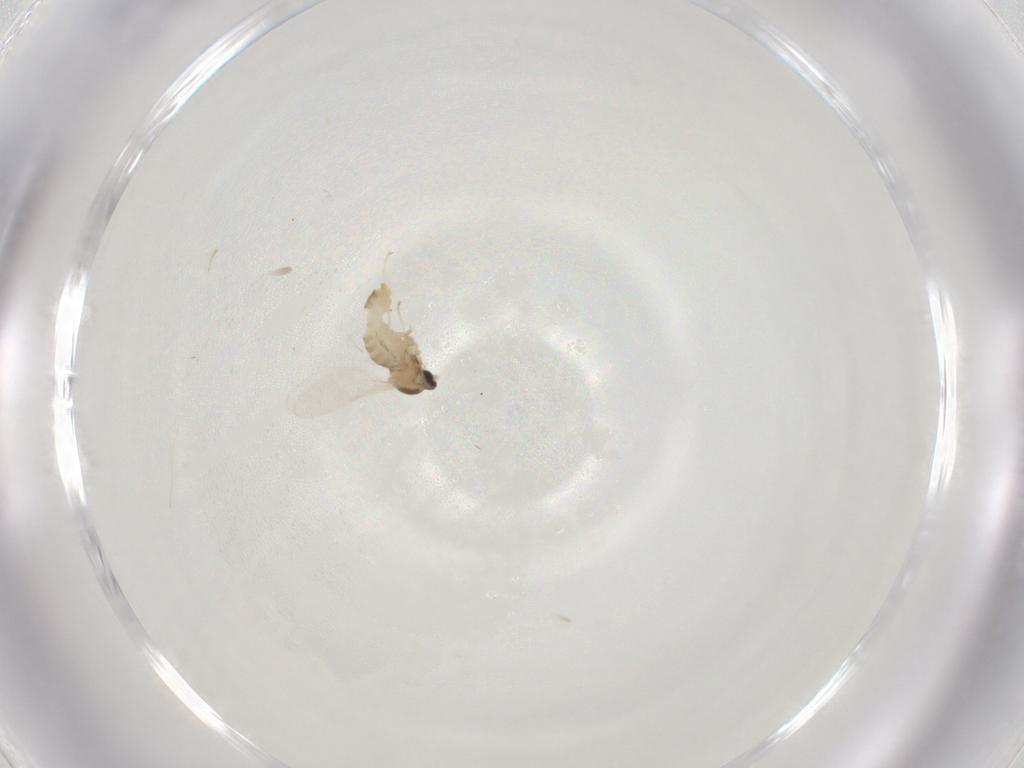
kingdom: Animalia
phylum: Arthropoda
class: Insecta
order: Diptera
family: Cecidomyiidae
